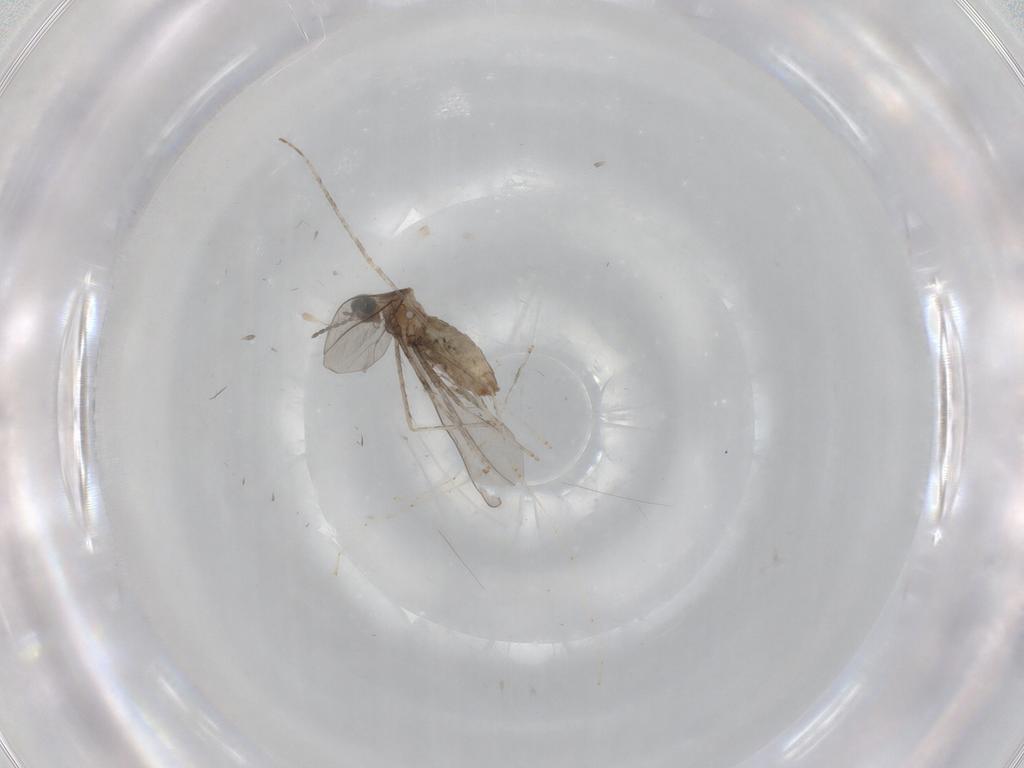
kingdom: Animalia
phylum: Arthropoda
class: Insecta
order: Diptera
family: Cecidomyiidae
